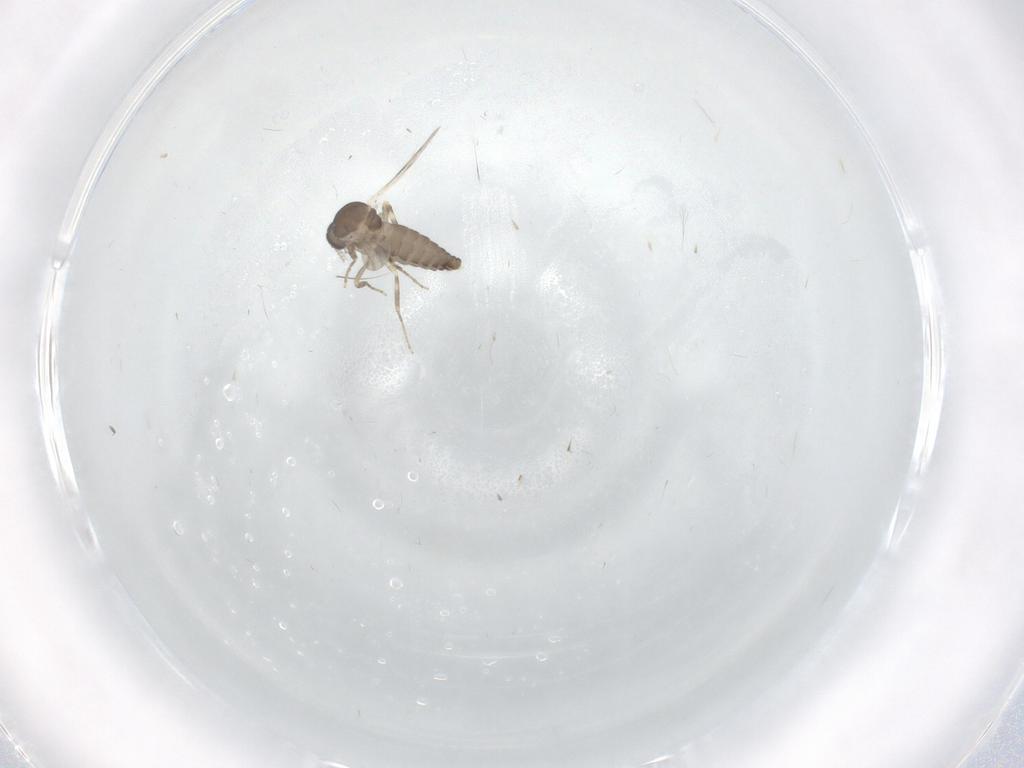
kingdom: Animalia
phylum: Arthropoda
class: Insecta
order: Diptera
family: Ceratopogonidae
